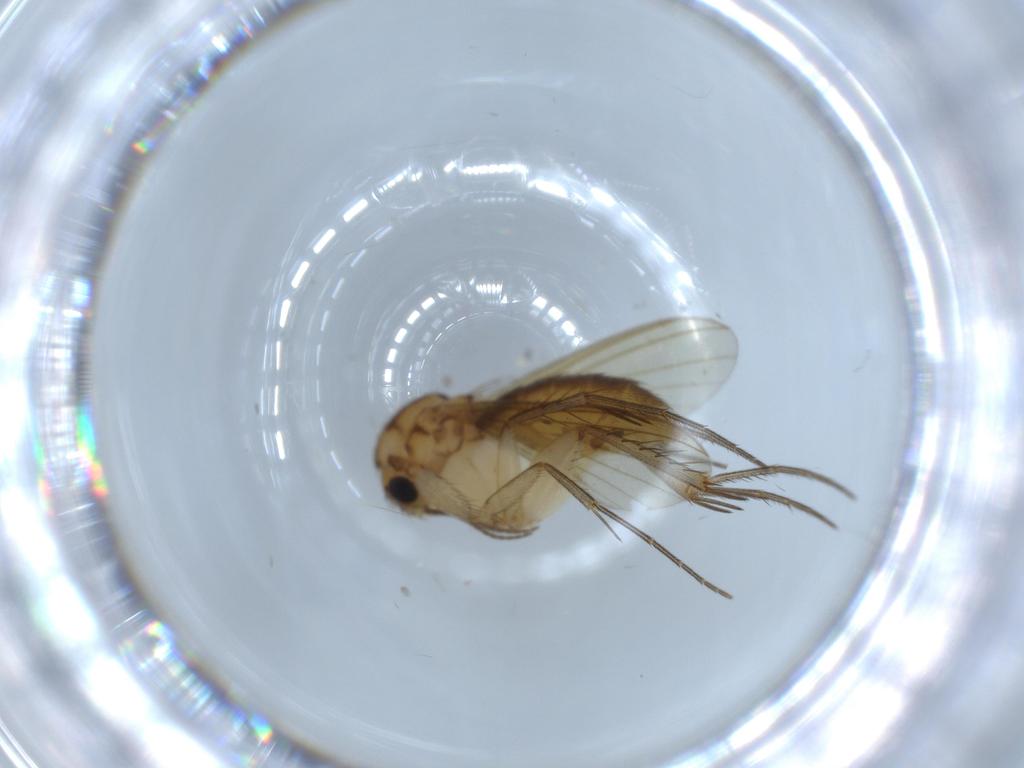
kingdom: Animalia
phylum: Arthropoda
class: Insecta
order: Diptera
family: Mycetophilidae
